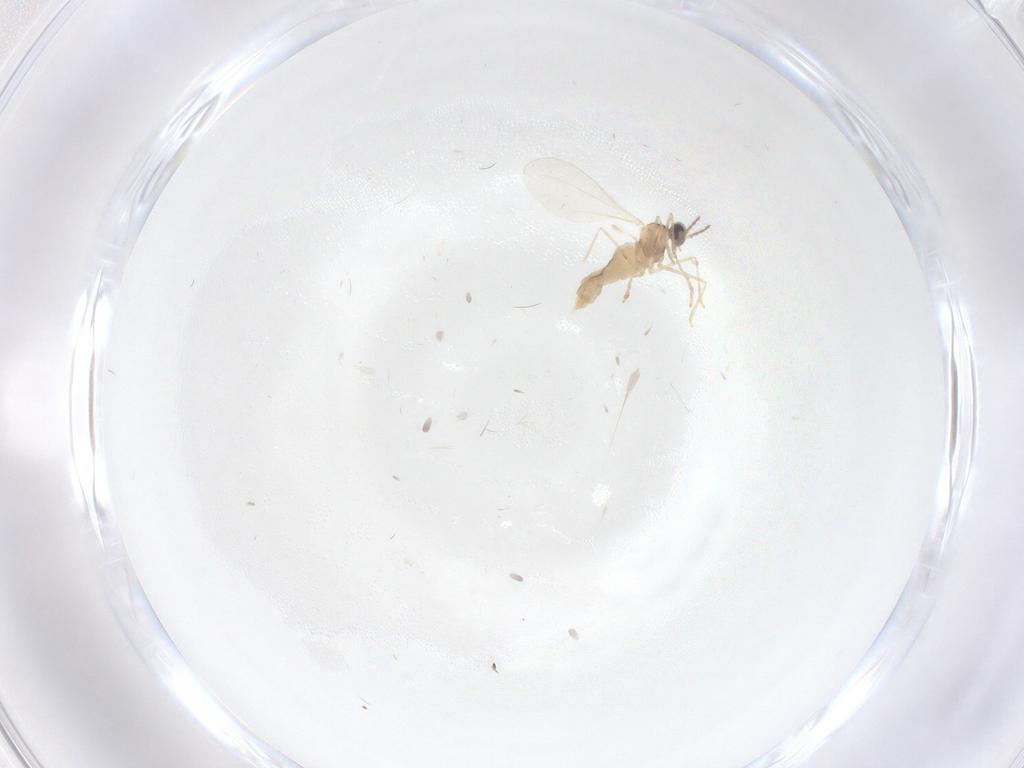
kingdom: Animalia
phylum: Arthropoda
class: Insecta
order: Diptera
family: Cecidomyiidae
